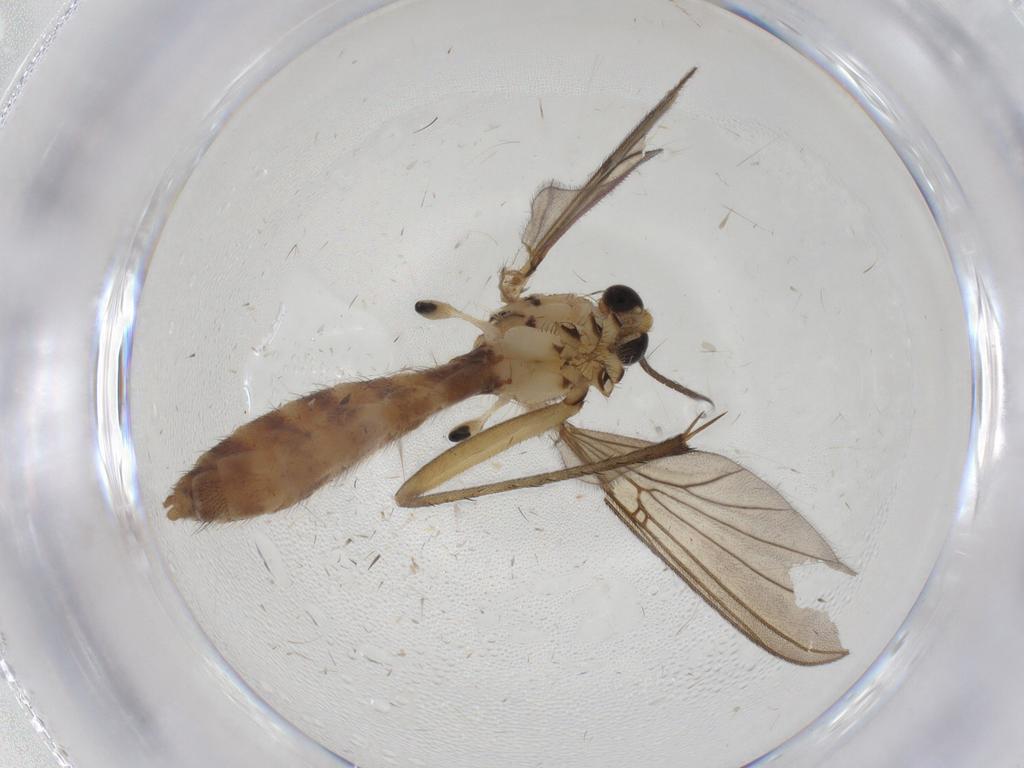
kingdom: Animalia
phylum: Arthropoda
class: Insecta
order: Diptera
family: Mycetophilidae
